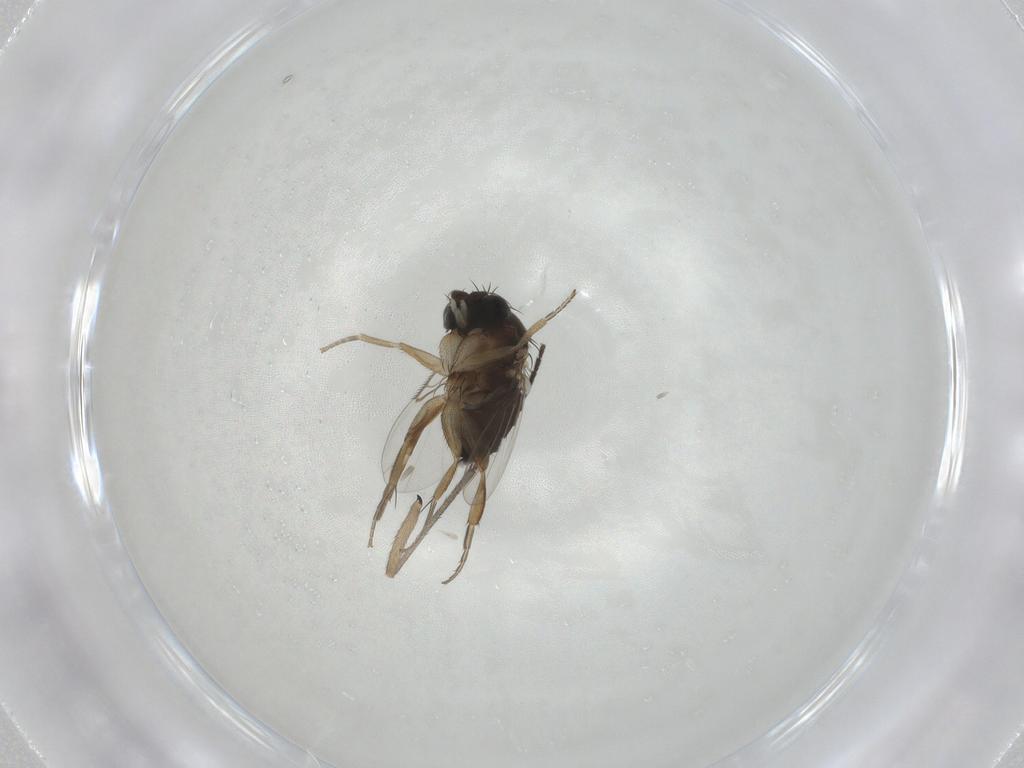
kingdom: Animalia
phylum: Arthropoda
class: Insecta
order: Diptera
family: Sciaridae
